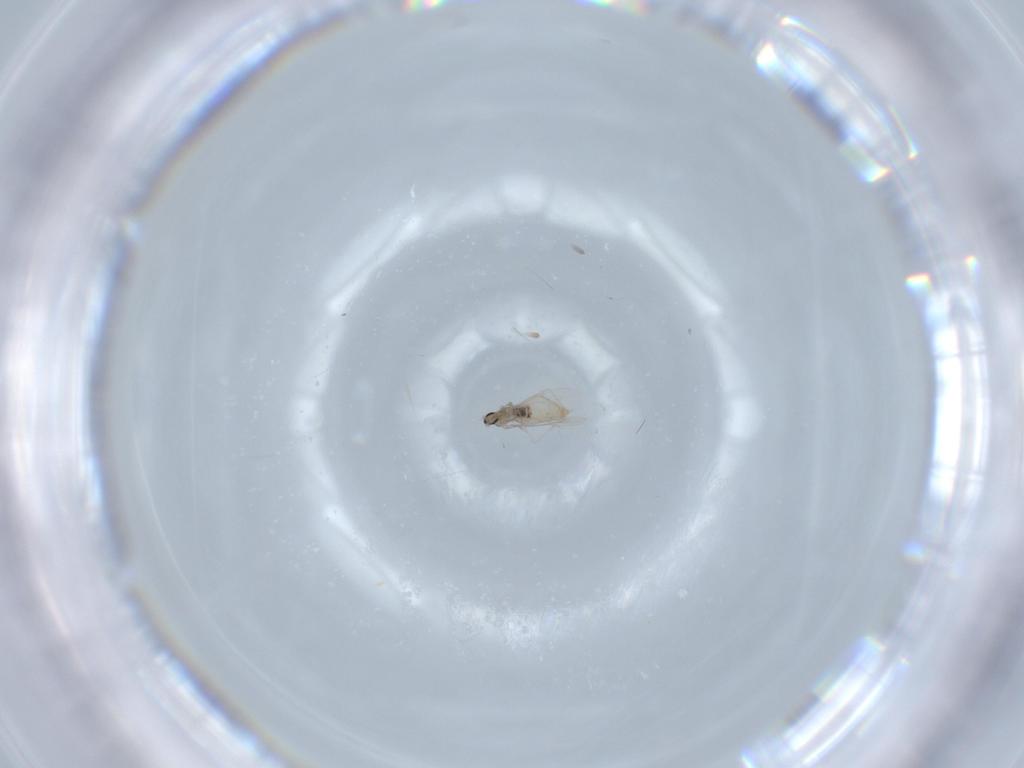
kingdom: Animalia
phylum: Arthropoda
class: Insecta
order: Diptera
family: Cecidomyiidae
